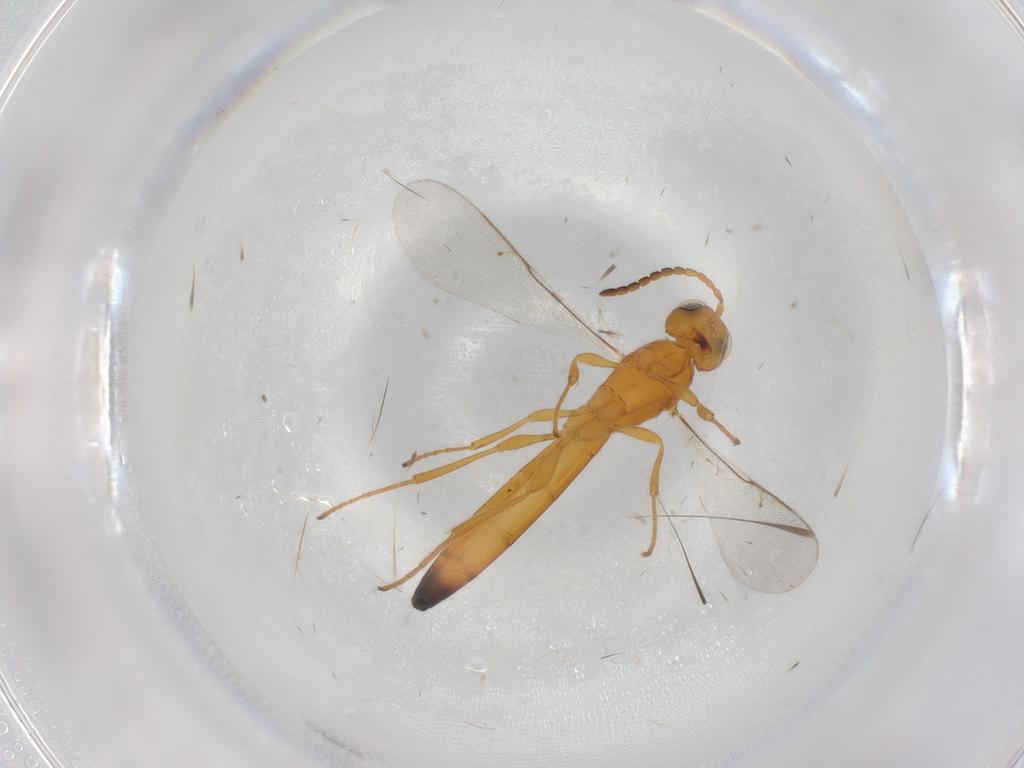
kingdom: Animalia
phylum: Arthropoda
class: Insecta
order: Hymenoptera
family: Scelionidae
